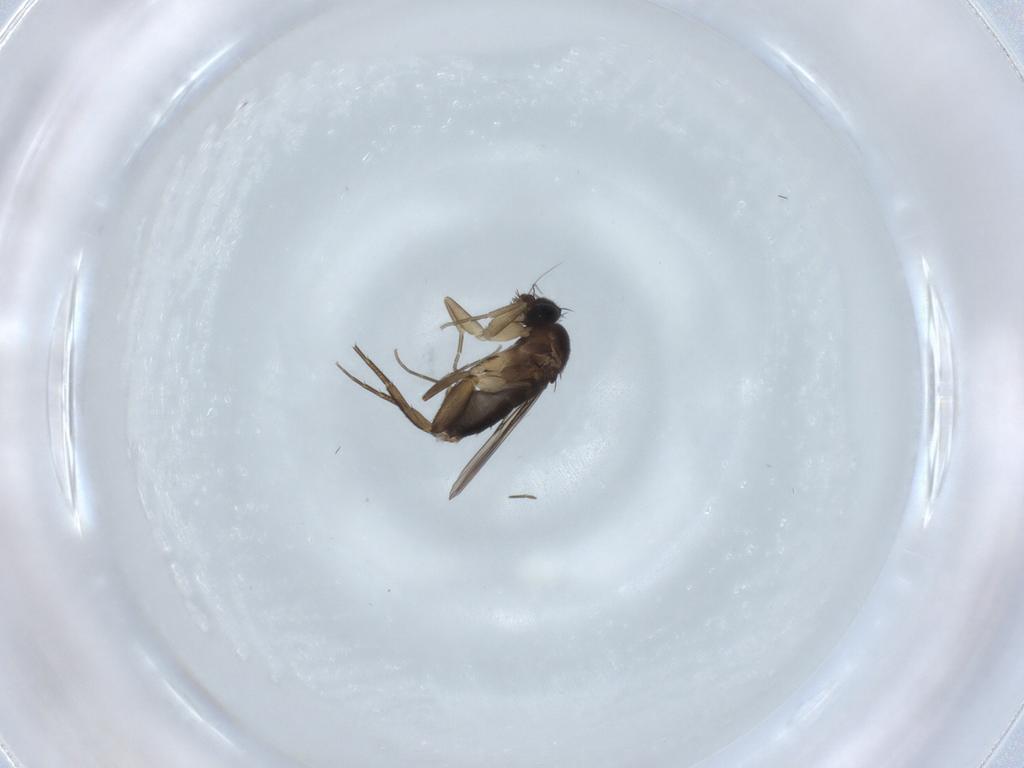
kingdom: Animalia
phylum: Arthropoda
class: Insecta
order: Diptera
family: Phoridae
